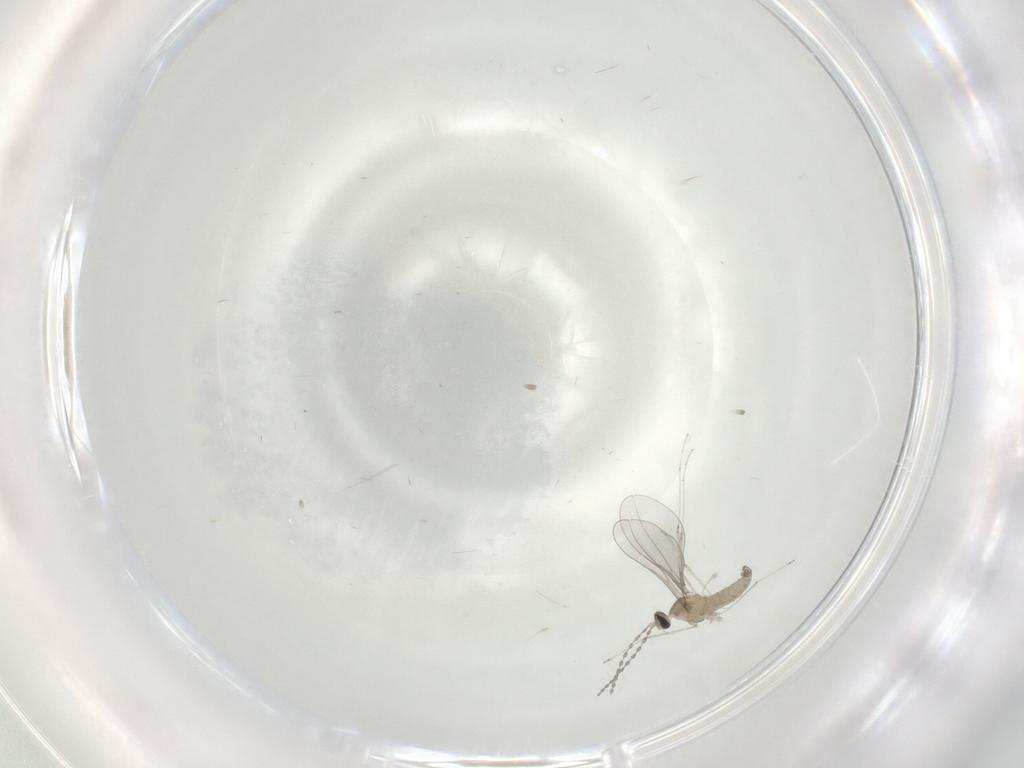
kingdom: Animalia
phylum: Arthropoda
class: Insecta
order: Diptera
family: Cecidomyiidae
